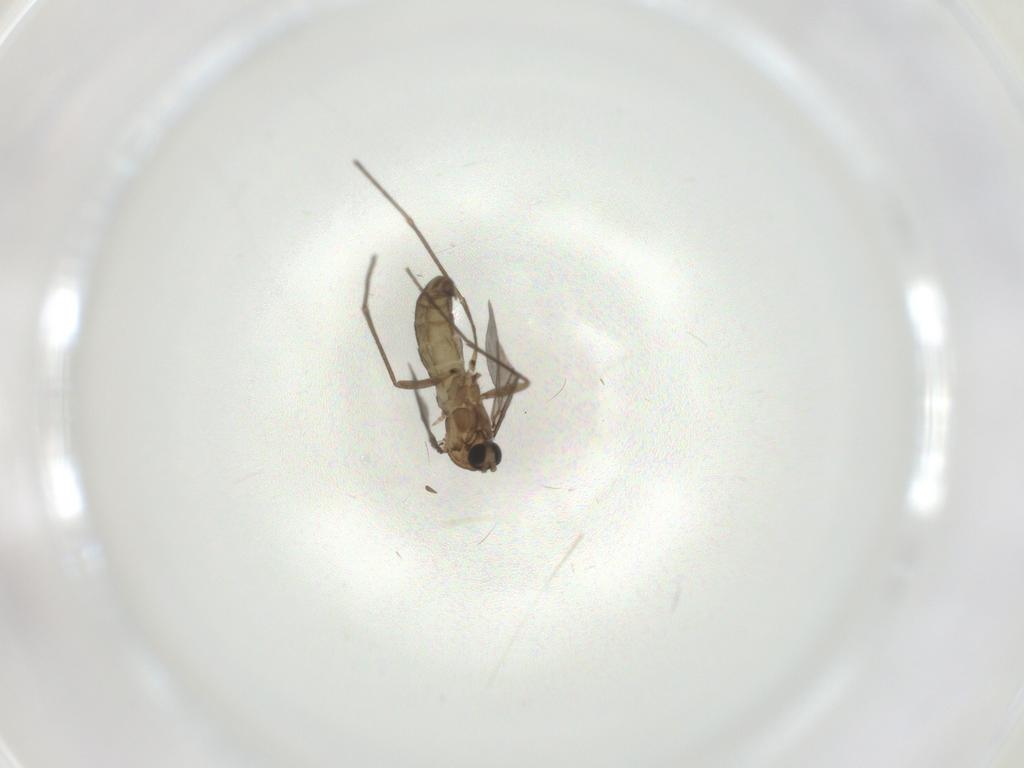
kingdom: Animalia
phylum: Arthropoda
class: Insecta
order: Diptera
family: Sciaridae
